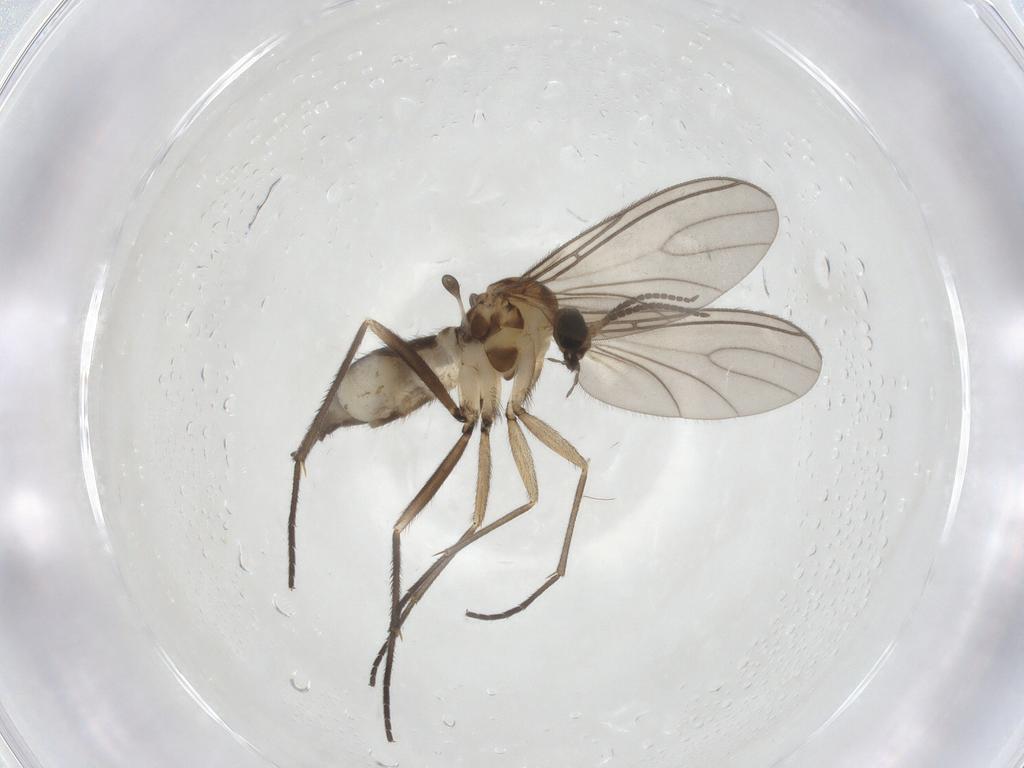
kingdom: Animalia
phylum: Arthropoda
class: Insecta
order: Diptera
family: Sciaridae
